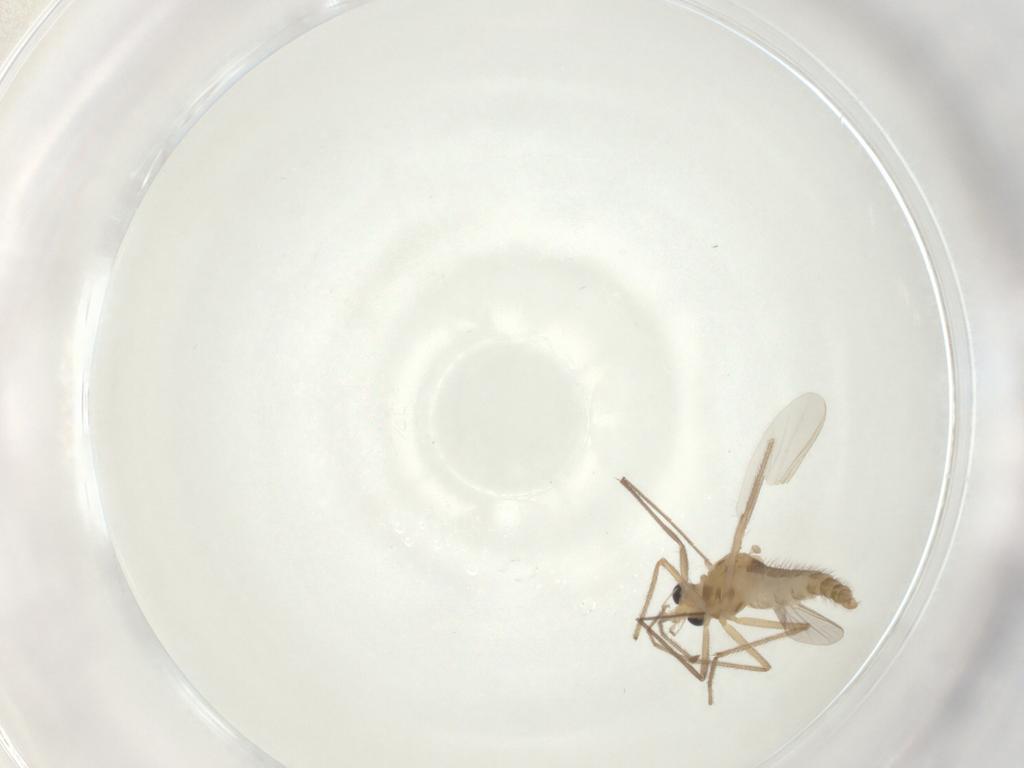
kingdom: Animalia
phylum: Arthropoda
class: Insecta
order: Diptera
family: Chironomidae
